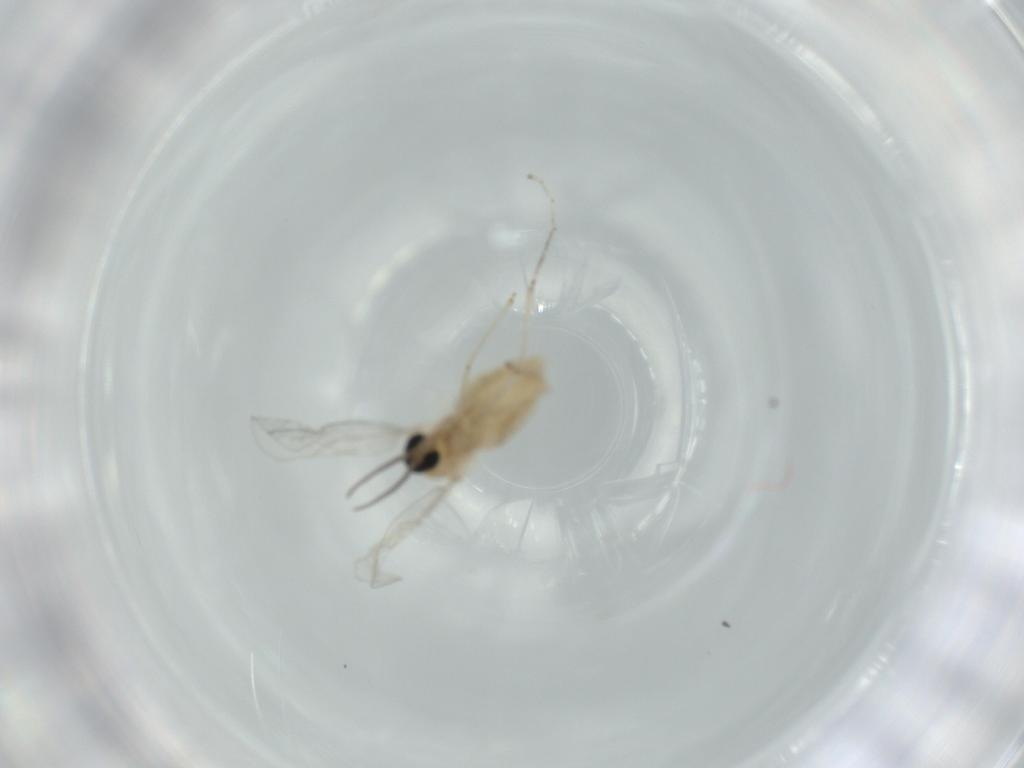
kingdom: Animalia
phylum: Arthropoda
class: Insecta
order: Diptera
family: Cecidomyiidae
